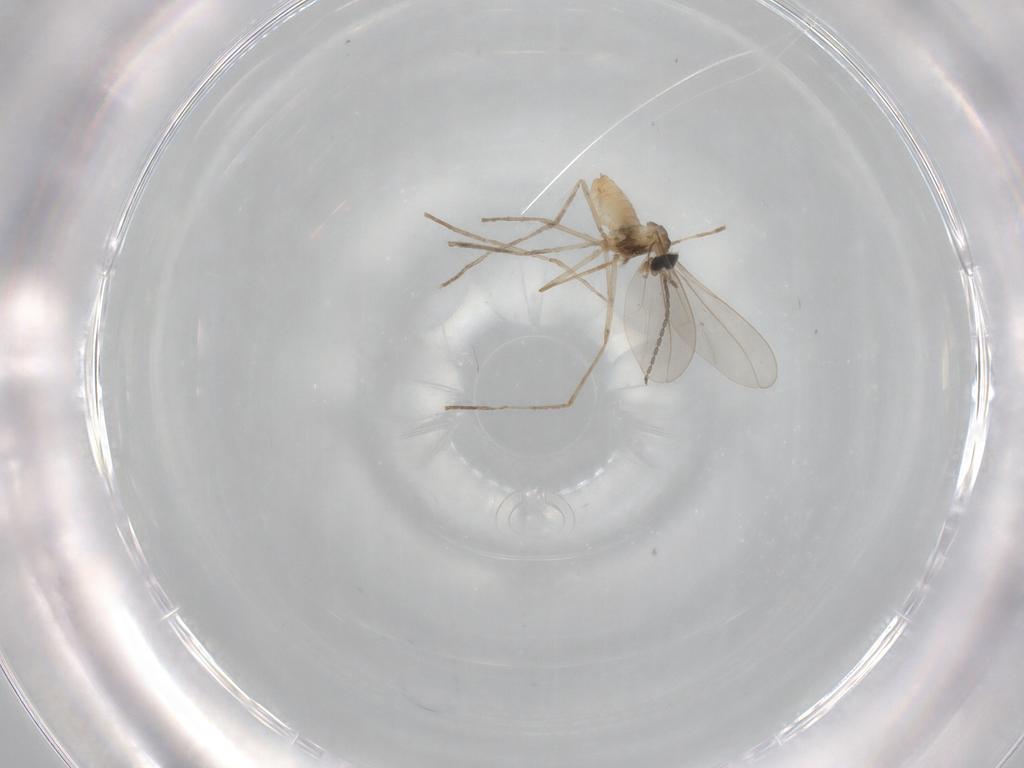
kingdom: Animalia
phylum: Arthropoda
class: Insecta
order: Diptera
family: Cecidomyiidae
